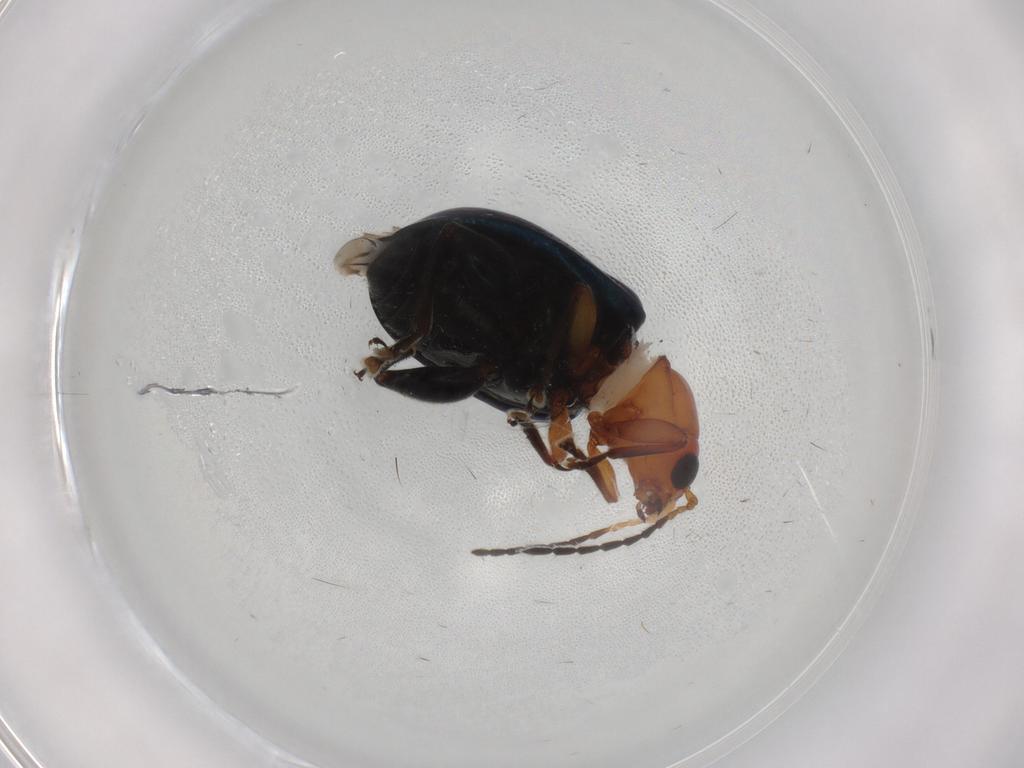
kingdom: Animalia
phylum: Arthropoda
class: Insecta
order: Coleoptera
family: Chrysomelidae
